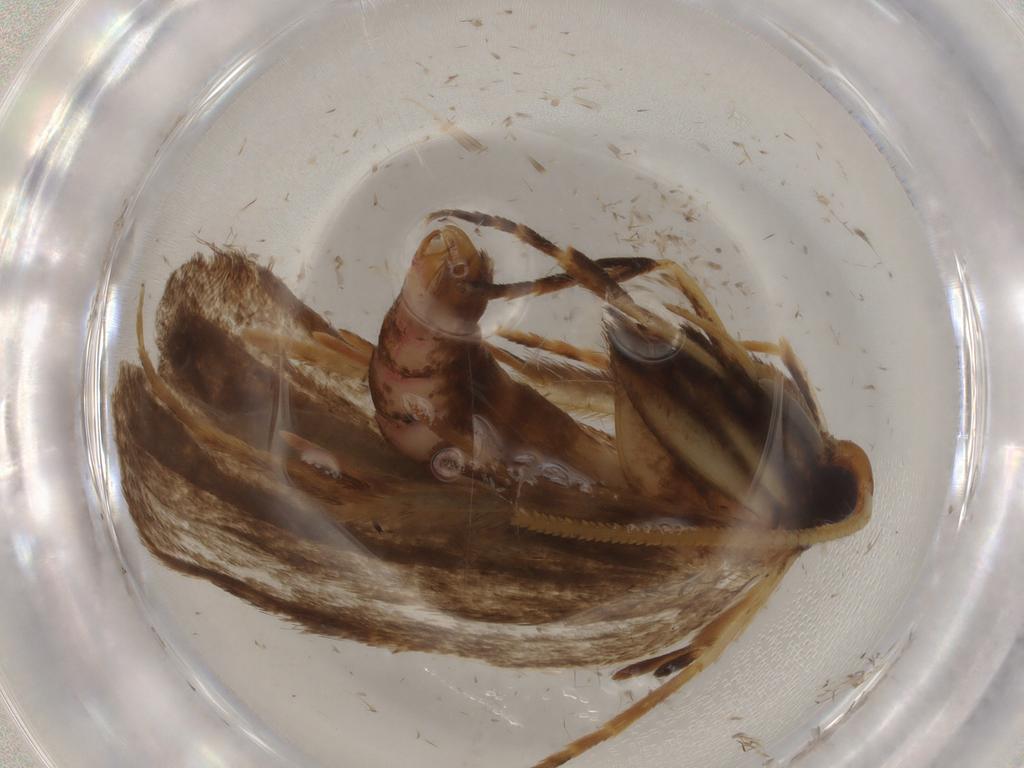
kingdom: Animalia
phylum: Arthropoda
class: Insecta
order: Lepidoptera
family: Lecithoceridae
